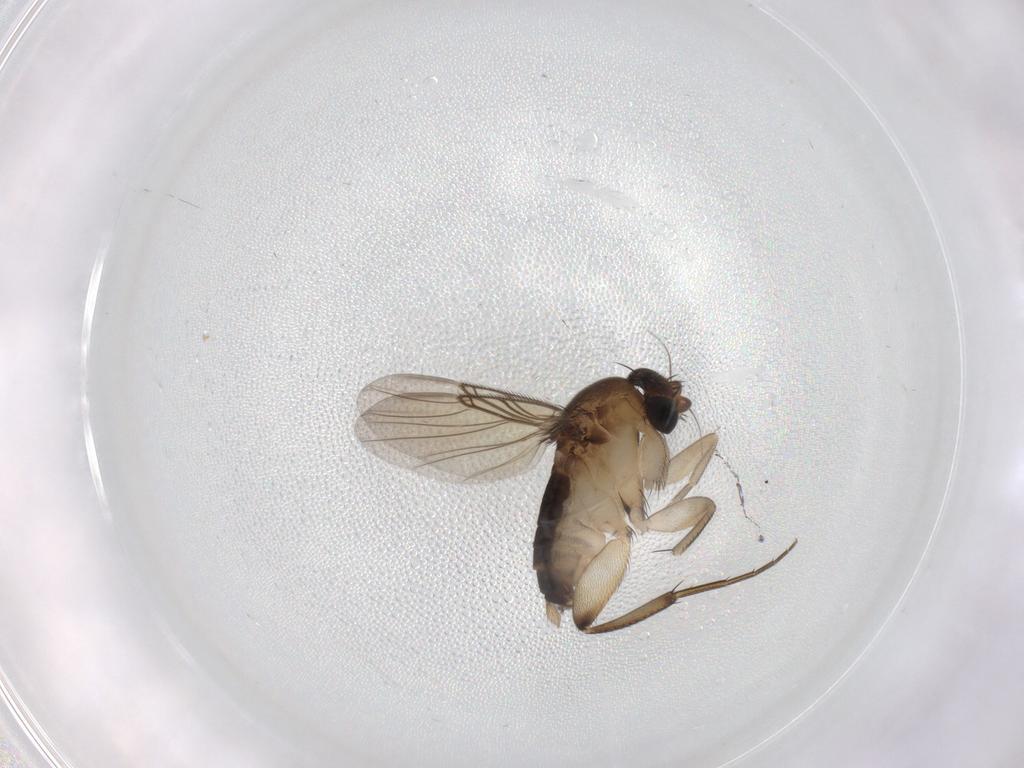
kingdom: Animalia
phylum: Arthropoda
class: Insecta
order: Diptera
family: Phoridae
